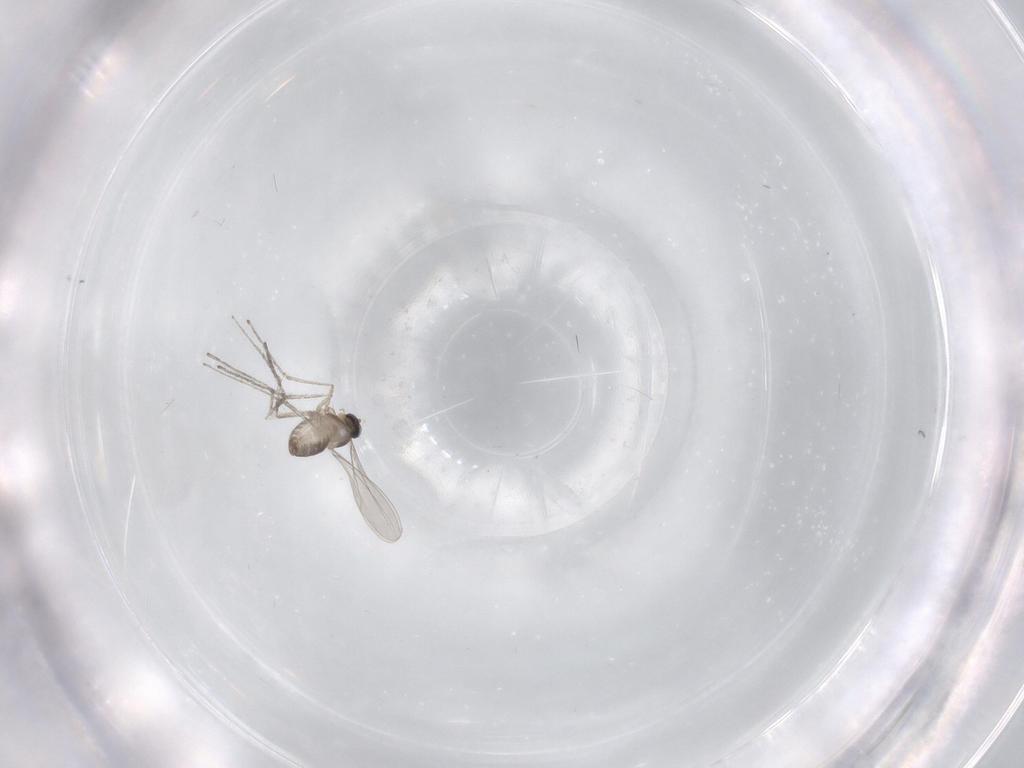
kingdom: Animalia
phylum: Arthropoda
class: Insecta
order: Diptera
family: Cecidomyiidae
